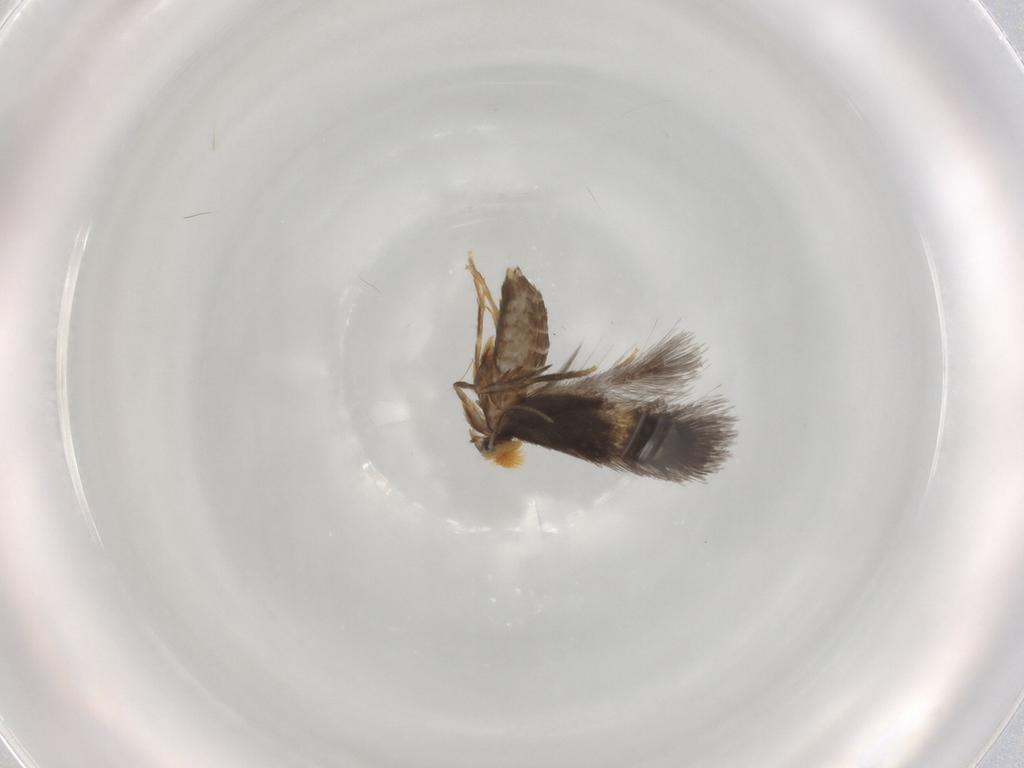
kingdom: Animalia
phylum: Arthropoda
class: Insecta
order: Lepidoptera
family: Nepticulidae
